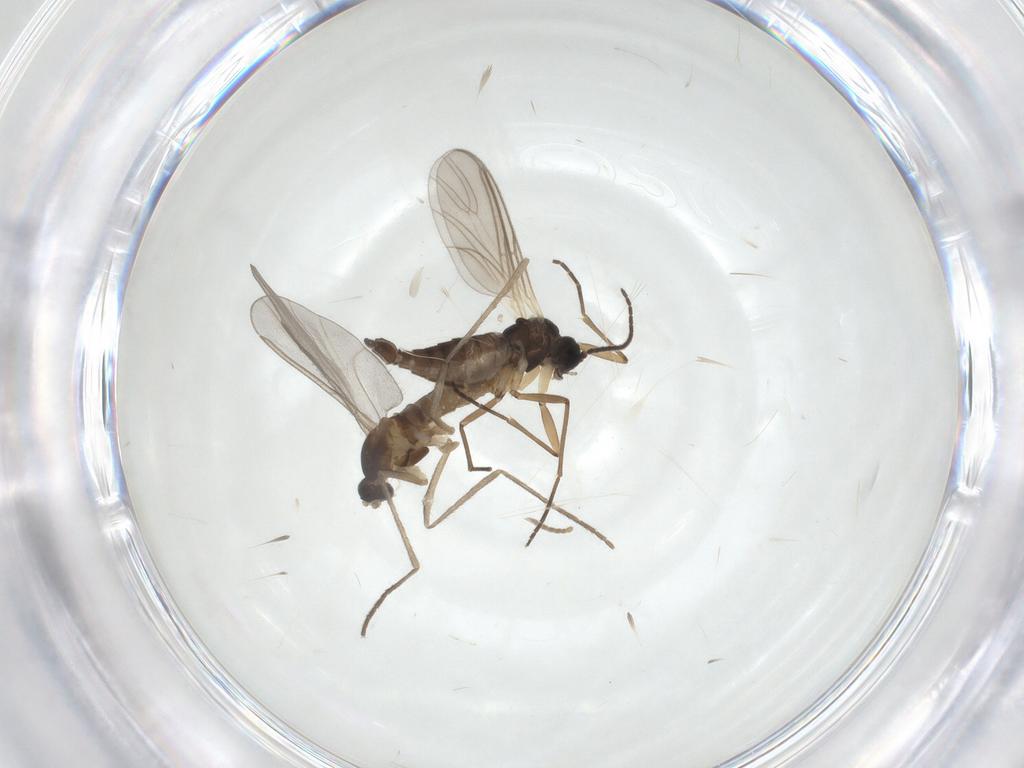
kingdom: Animalia
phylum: Arthropoda
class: Insecta
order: Diptera
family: Cecidomyiidae
